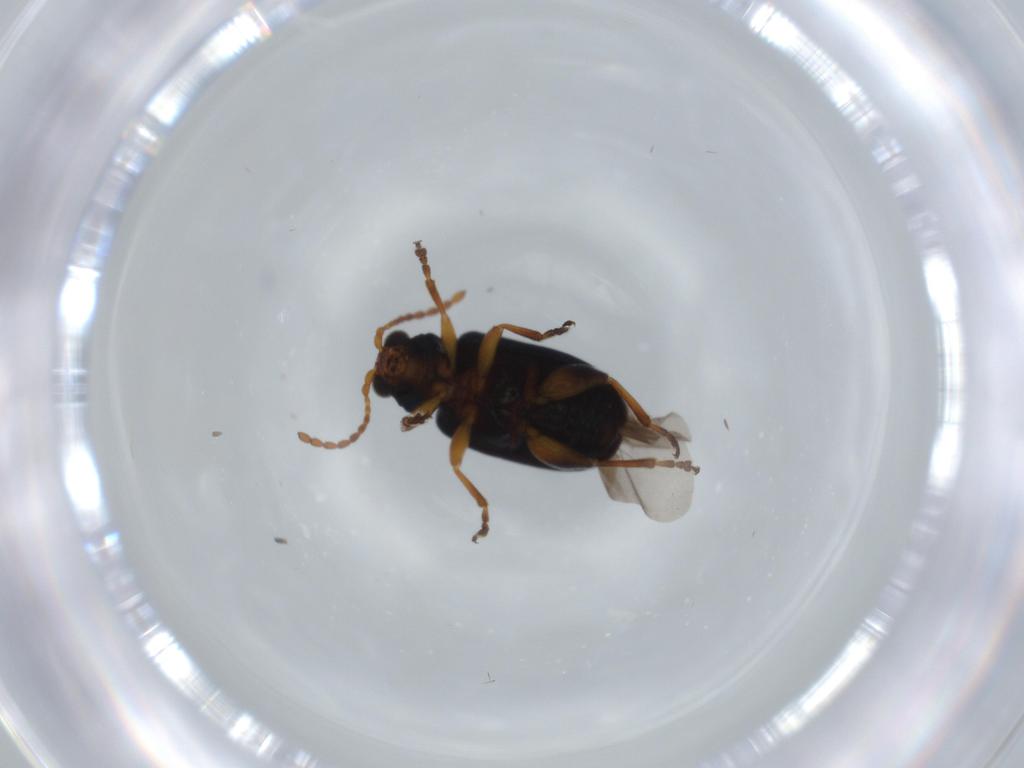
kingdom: Animalia
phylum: Arthropoda
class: Insecta
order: Coleoptera
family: Chrysomelidae
